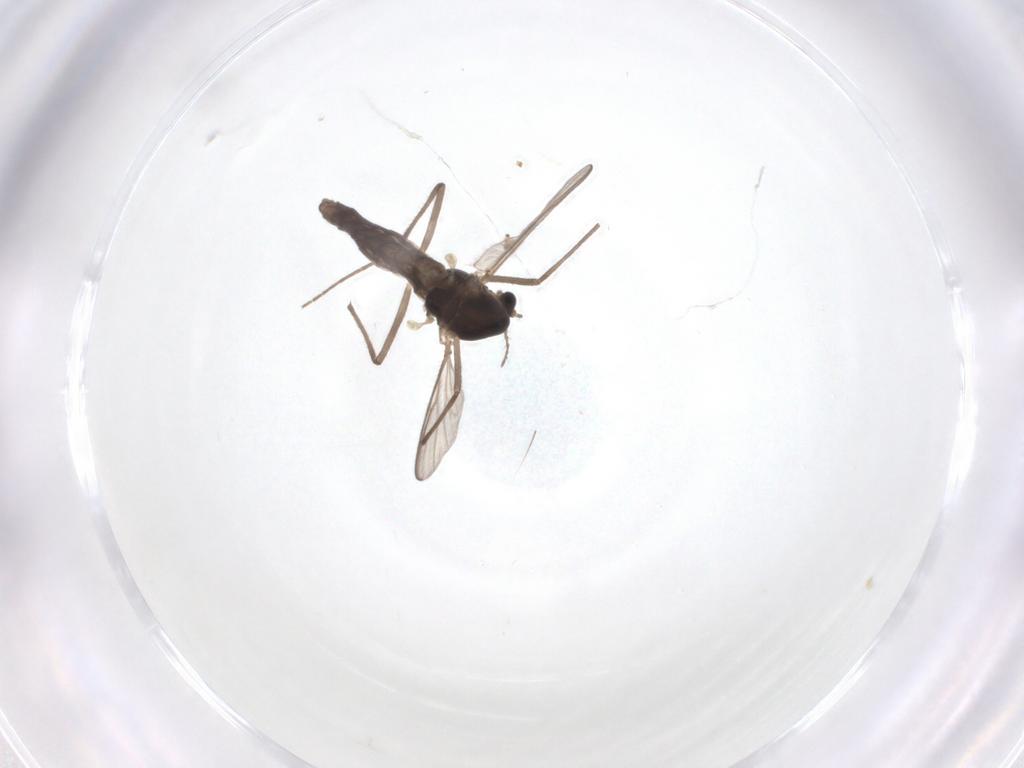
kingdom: Animalia
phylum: Arthropoda
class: Insecta
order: Diptera
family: Chironomidae
